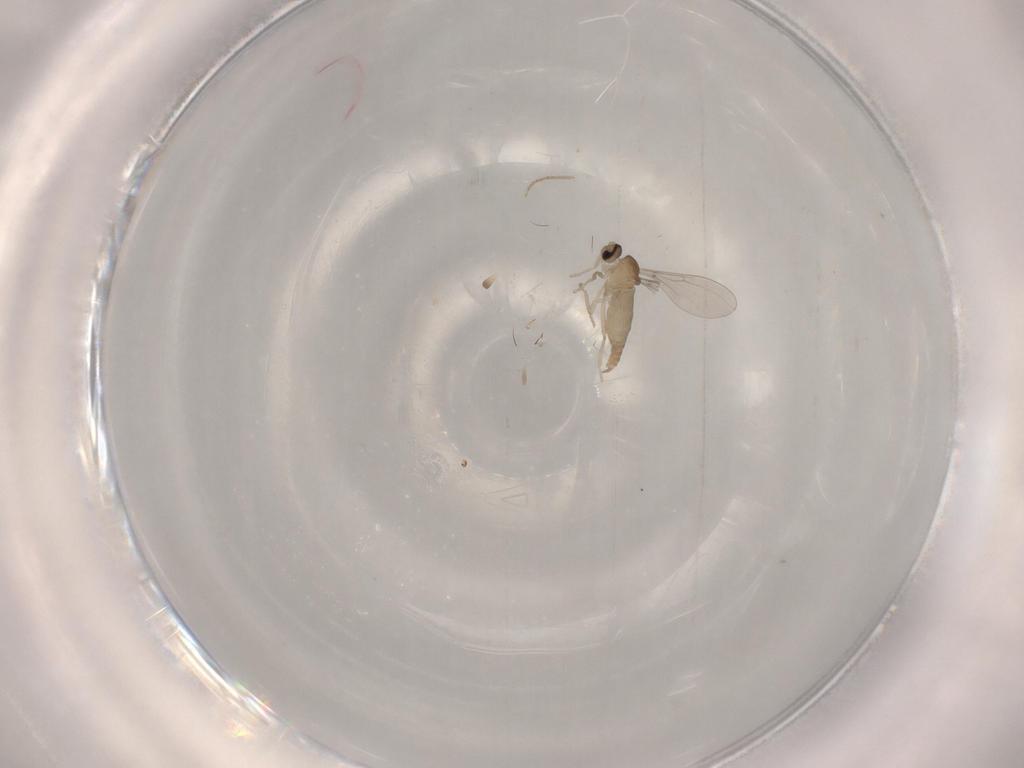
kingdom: Animalia
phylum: Arthropoda
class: Insecta
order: Diptera
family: Cecidomyiidae
